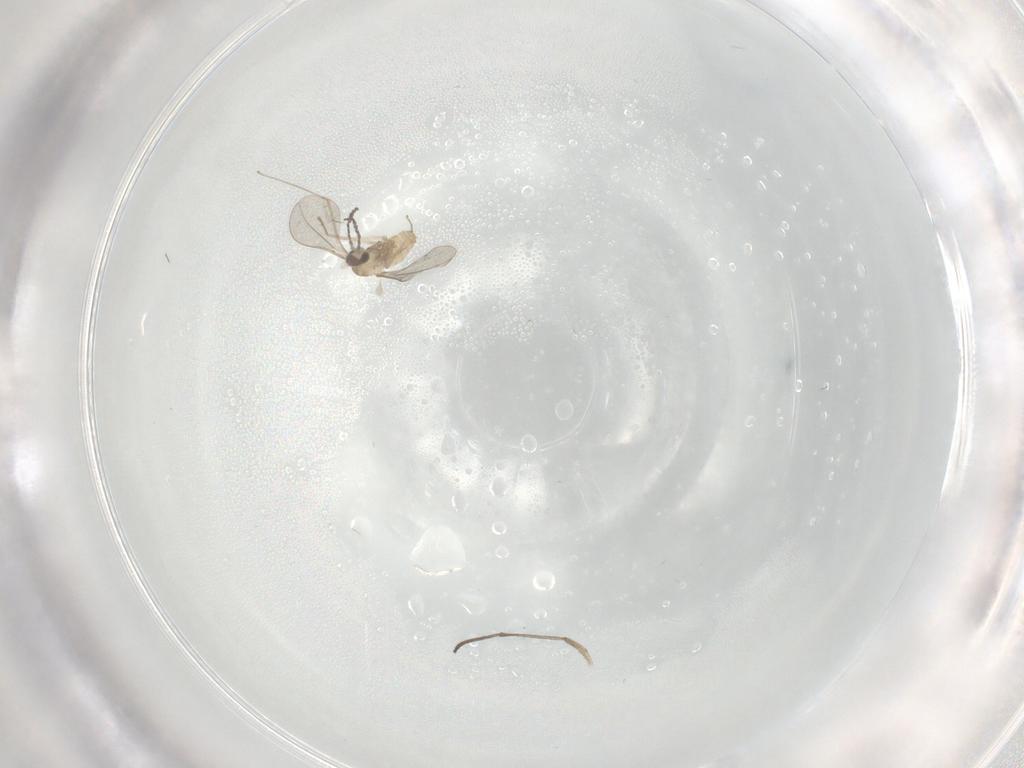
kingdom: Animalia
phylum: Arthropoda
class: Insecta
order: Diptera
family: Cecidomyiidae
